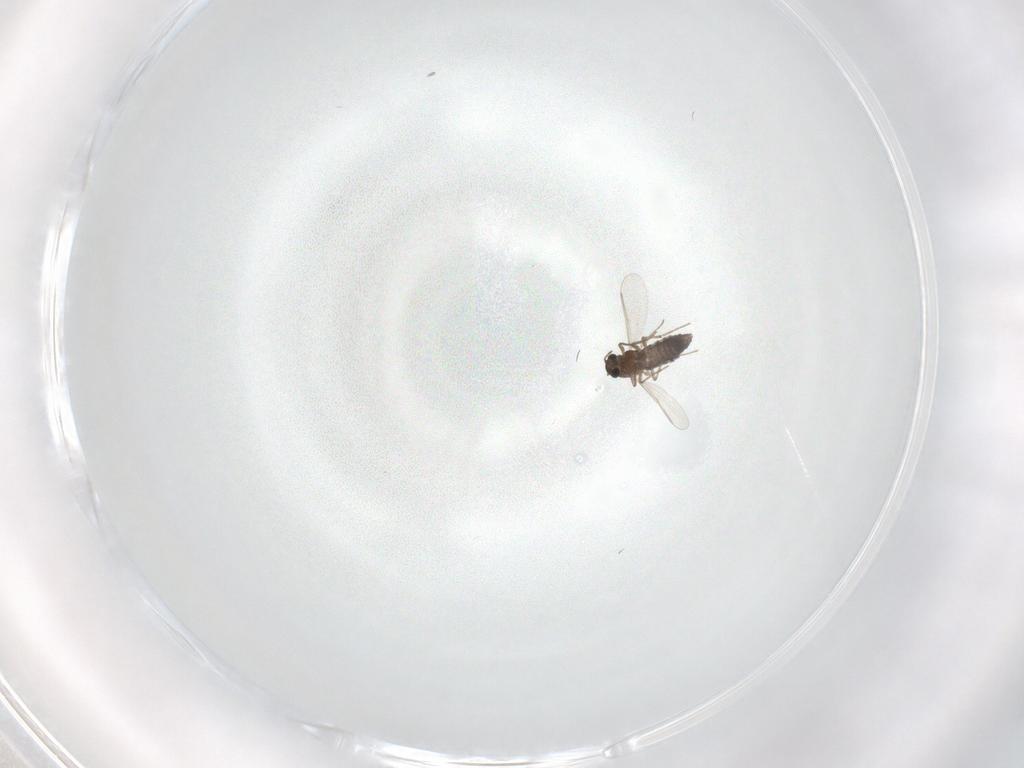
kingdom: Animalia
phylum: Arthropoda
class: Insecta
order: Diptera
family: Chironomidae
